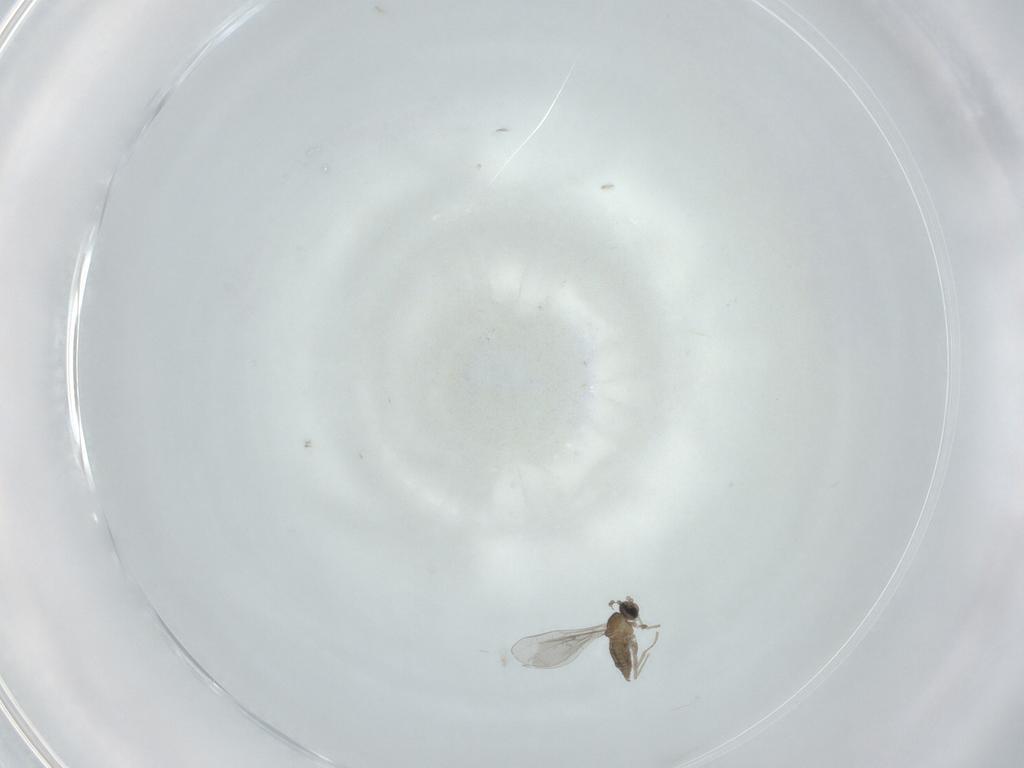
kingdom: Animalia
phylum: Arthropoda
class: Insecta
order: Diptera
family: Cecidomyiidae
